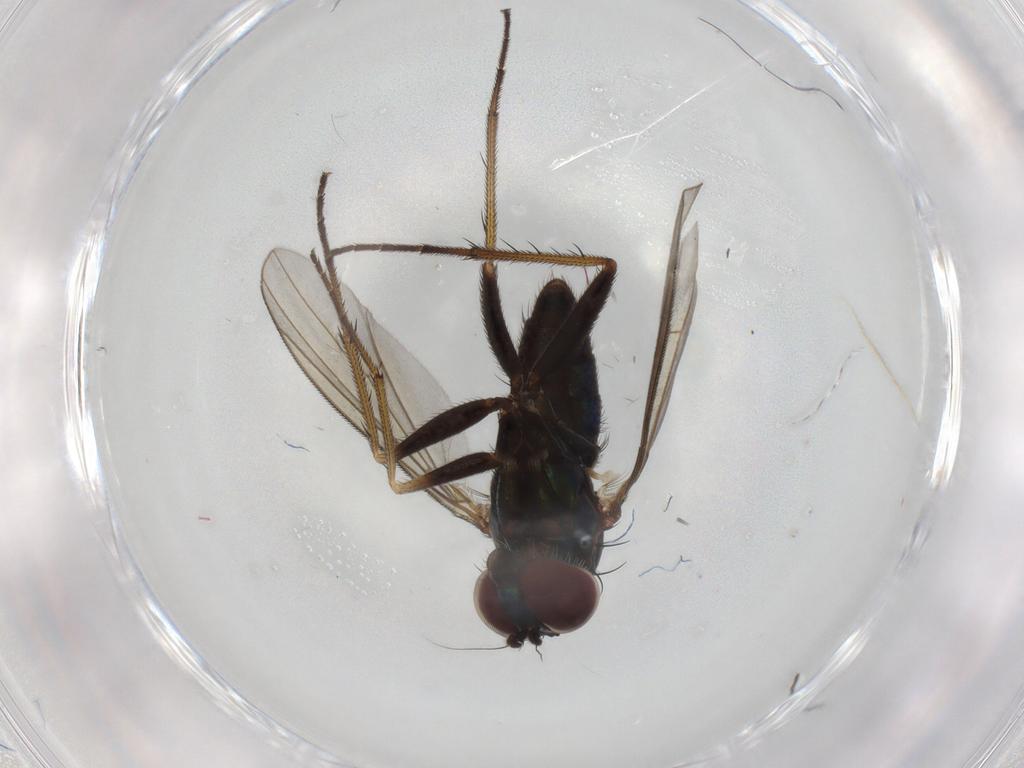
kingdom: Animalia
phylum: Arthropoda
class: Insecta
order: Diptera
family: Dolichopodidae
